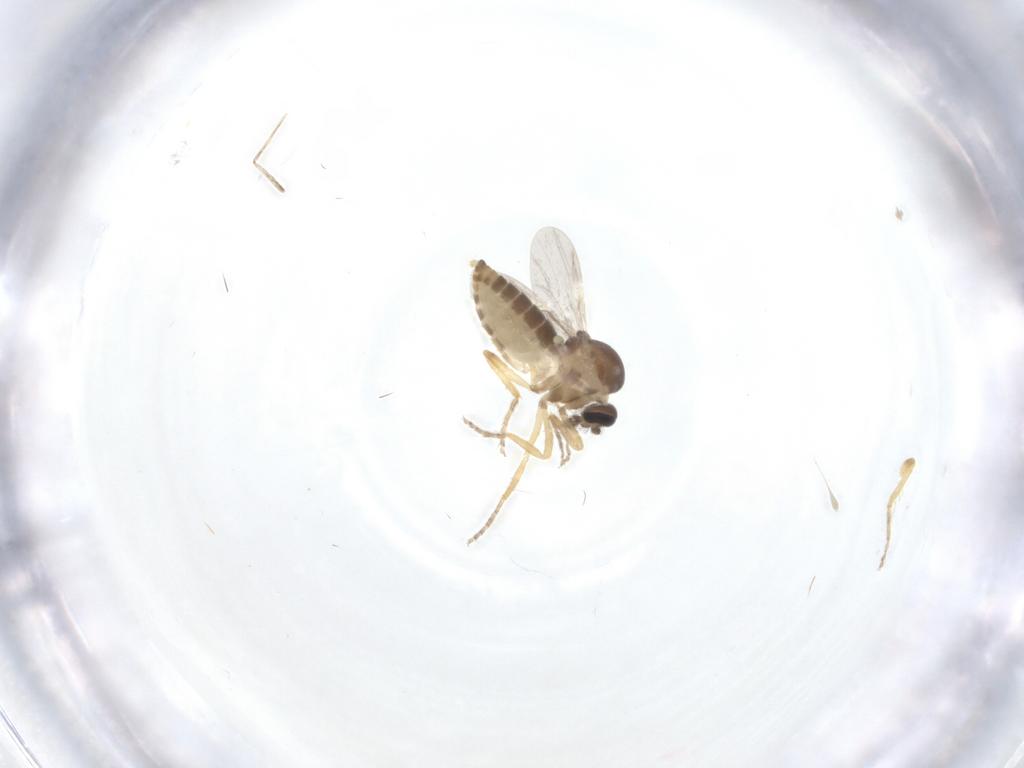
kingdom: Animalia
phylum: Arthropoda
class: Insecta
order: Diptera
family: Ceratopogonidae
